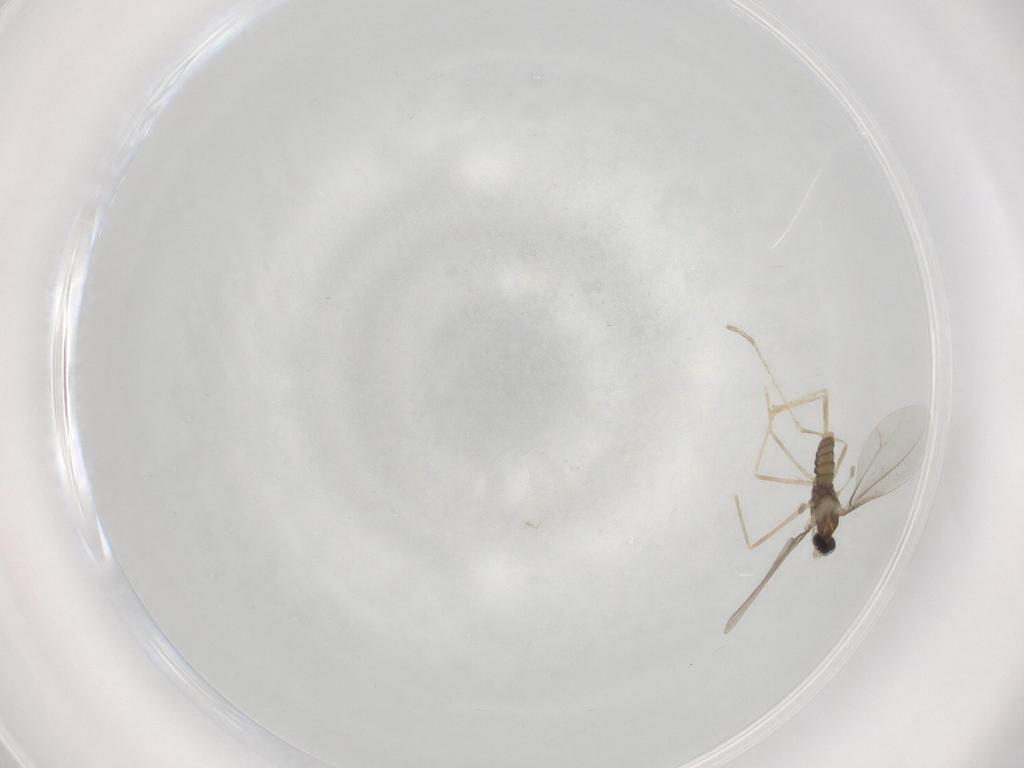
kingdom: Animalia
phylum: Arthropoda
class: Insecta
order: Diptera
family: Cecidomyiidae
